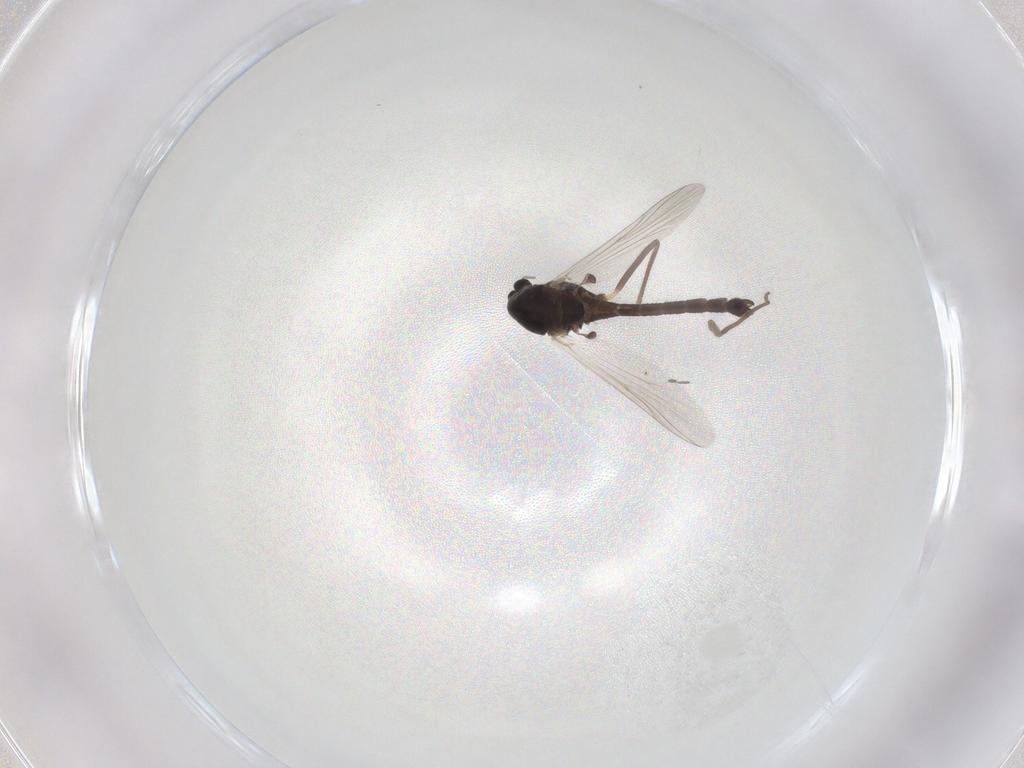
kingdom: Animalia
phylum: Arthropoda
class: Insecta
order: Diptera
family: Chironomidae
